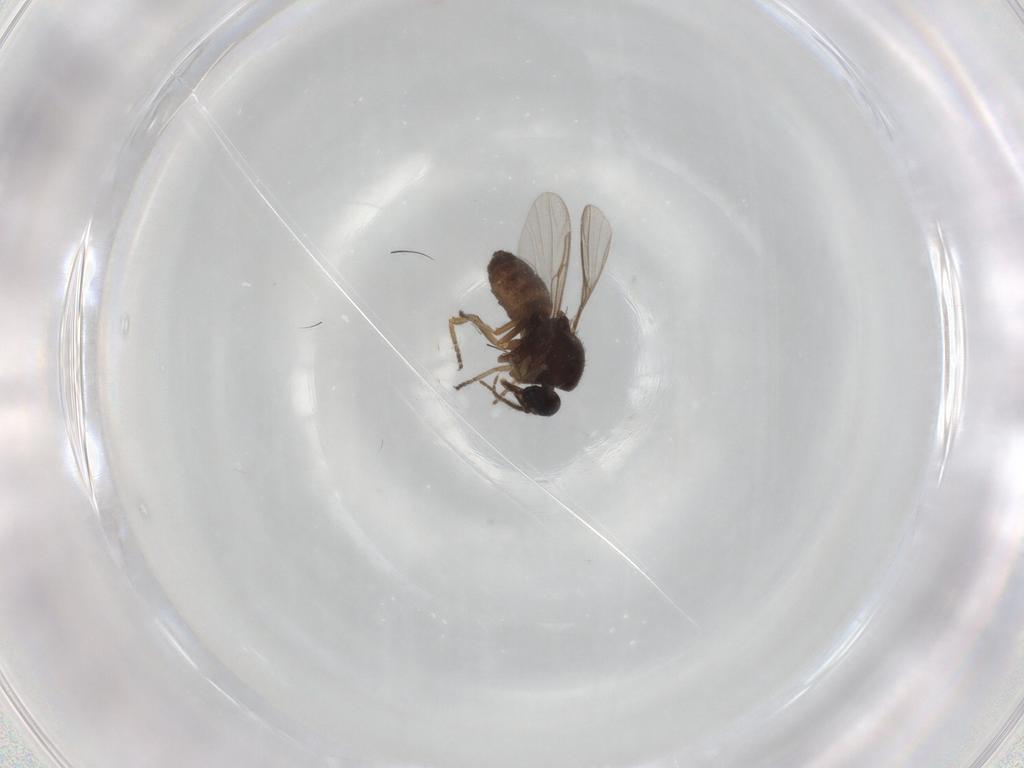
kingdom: Animalia
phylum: Arthropoda
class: Insecta
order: Diptera
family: Ceratopogonidae
